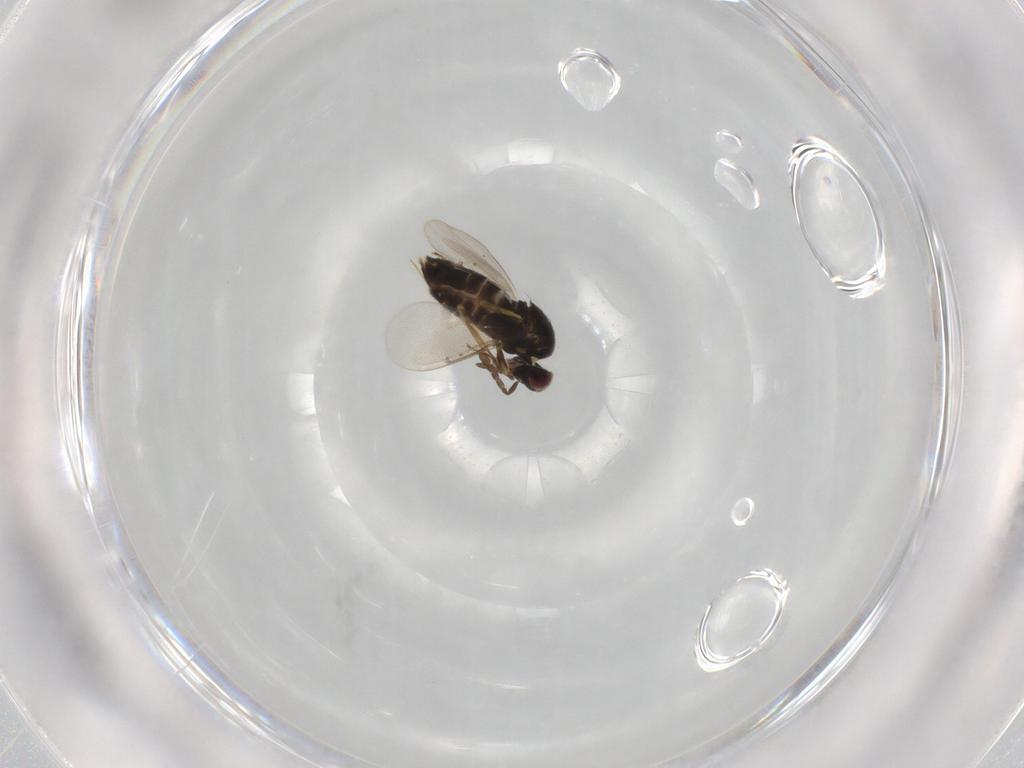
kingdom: Animalia
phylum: Arthropoda
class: Insecta
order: Hymenoptera
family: Aphelinidae
